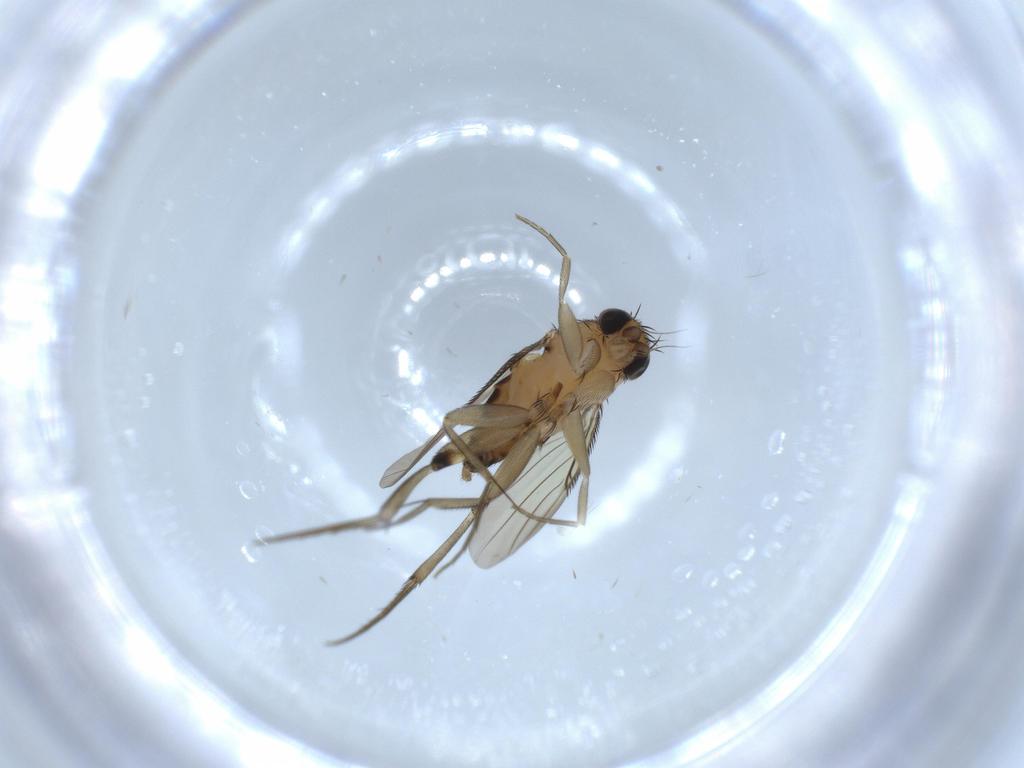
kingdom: Animalia
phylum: Arthropoda
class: Insecta
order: Diptera
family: Phoridae
